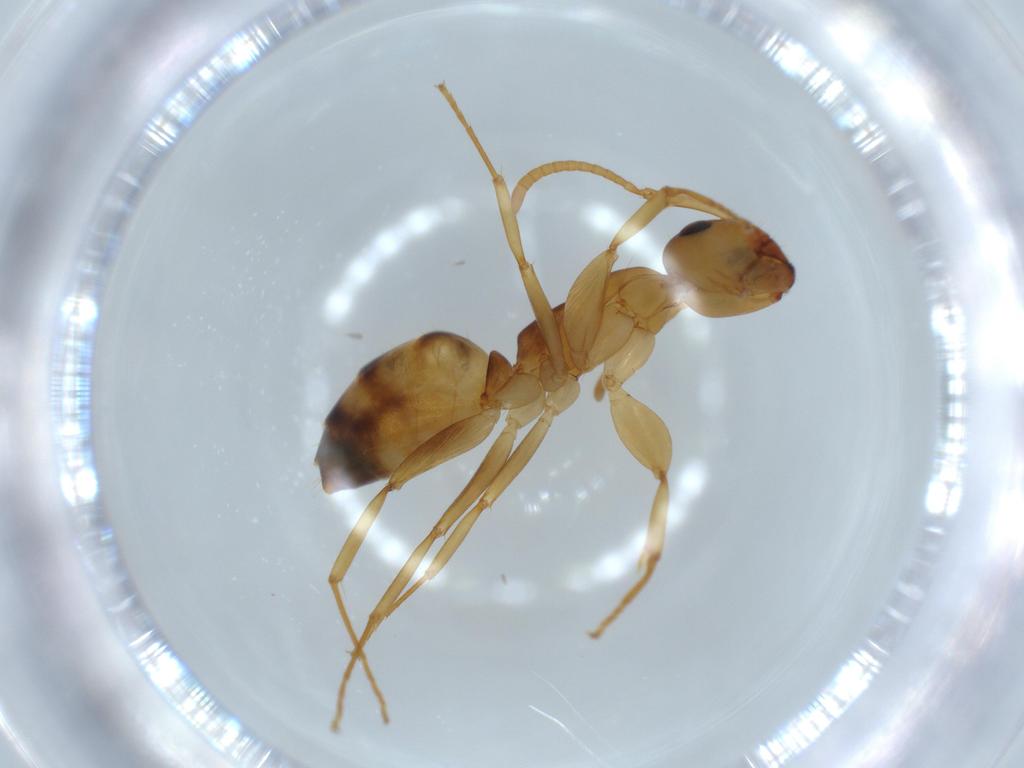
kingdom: Animalia
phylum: Arthropoda
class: Insecta
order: Hymenoptera
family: Formicidae
